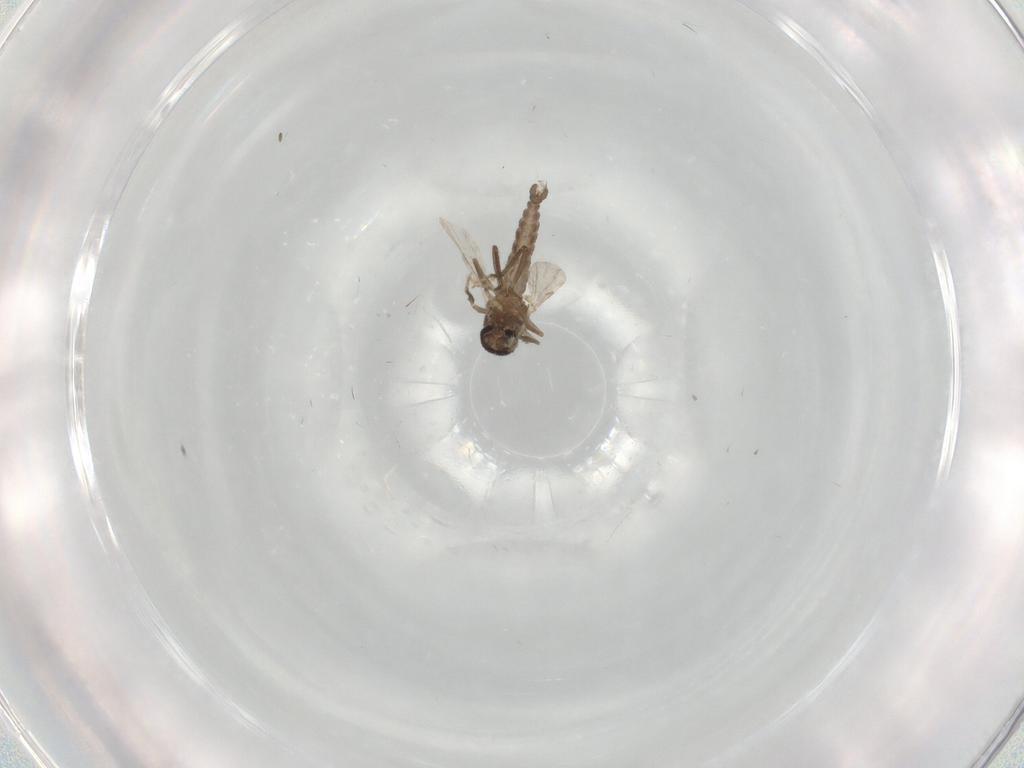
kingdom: Animalia
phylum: Arthropoda
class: Insecta
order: Diptera
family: Ceratopogonidae
